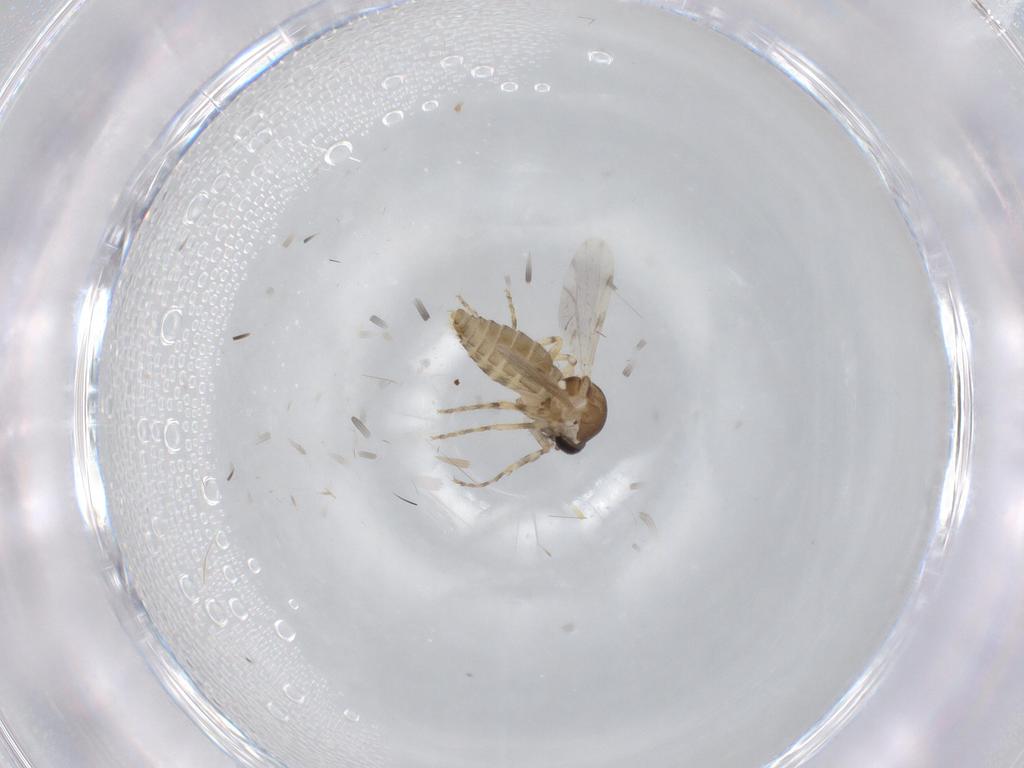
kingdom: Animalia
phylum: Arthropoda
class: Insecta
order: Diptera
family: Ceratopogonidae
